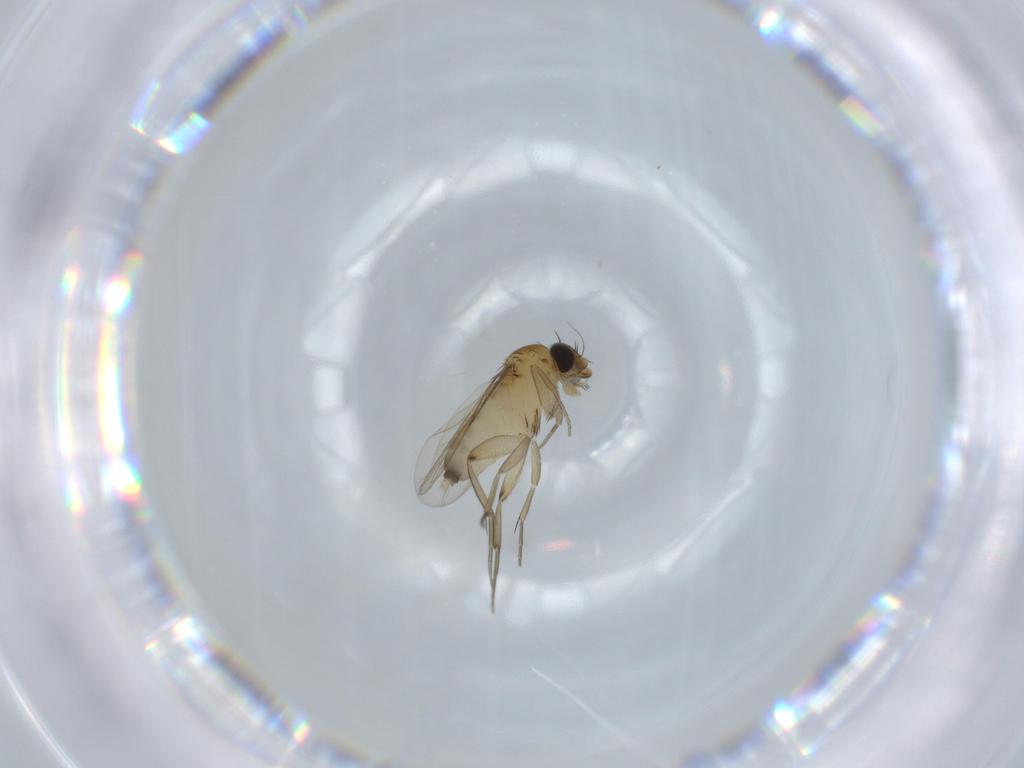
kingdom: Animalia
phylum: Arthropoda
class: Insecta
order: Diptera
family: Phoridae
